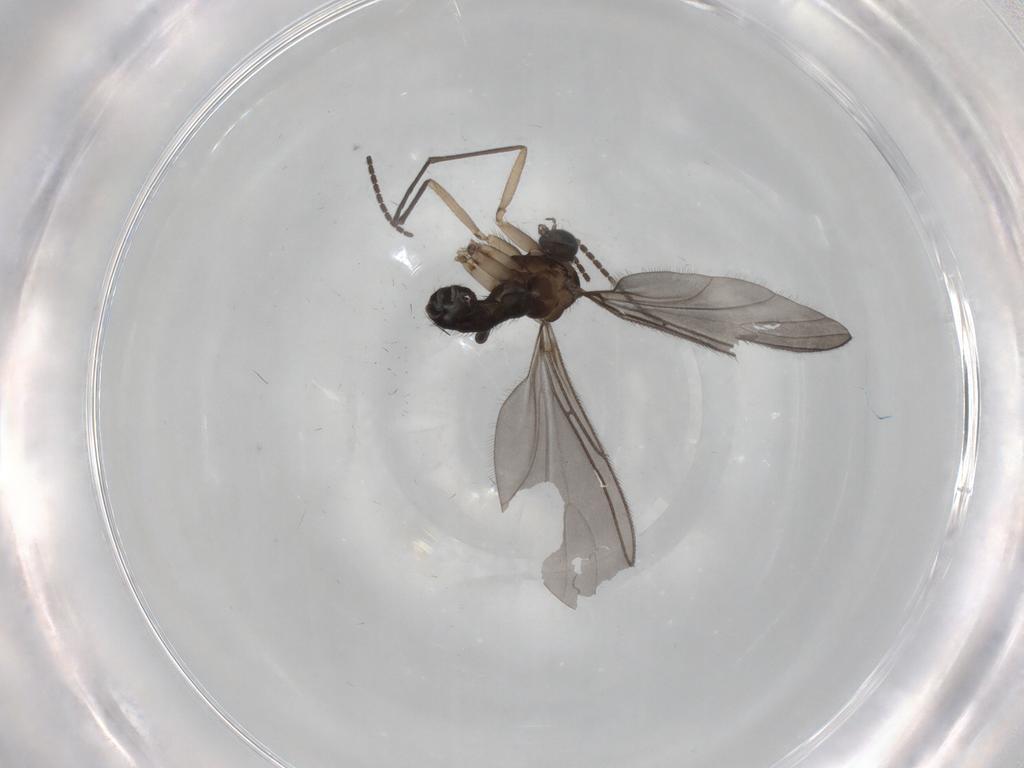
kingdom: Animalia
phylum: Arthropoda
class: Insecta
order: Diptera
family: Sciaridae
